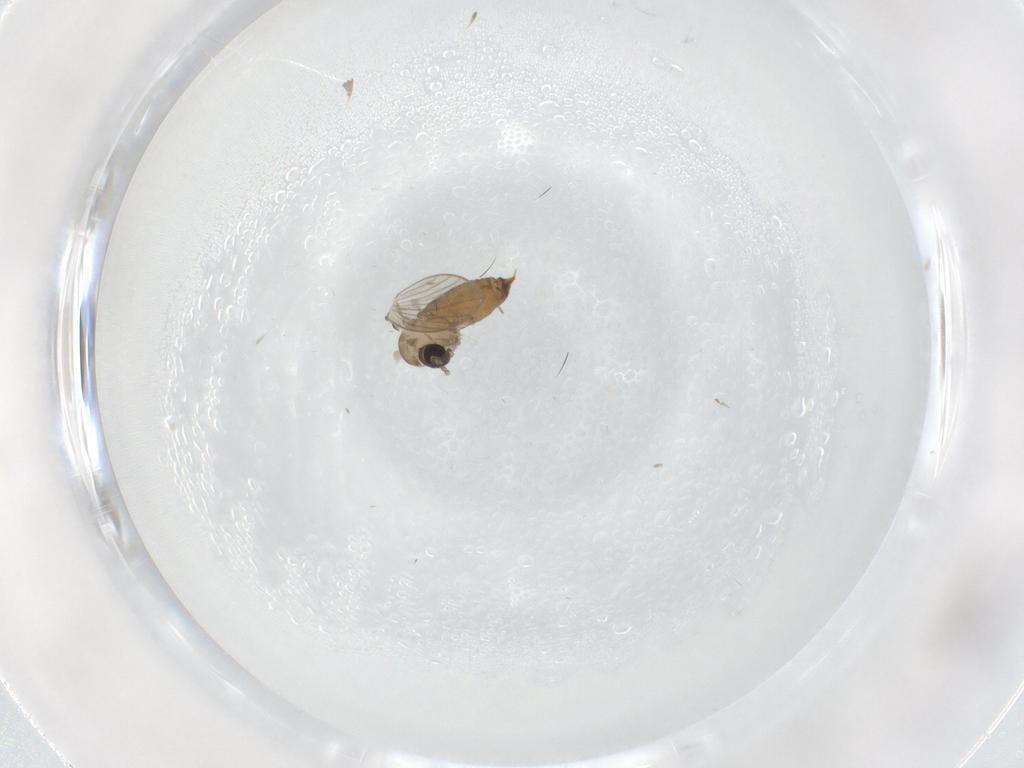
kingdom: Animalia
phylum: Arthropoda
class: Insecta
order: Diptera
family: Psychodidae
